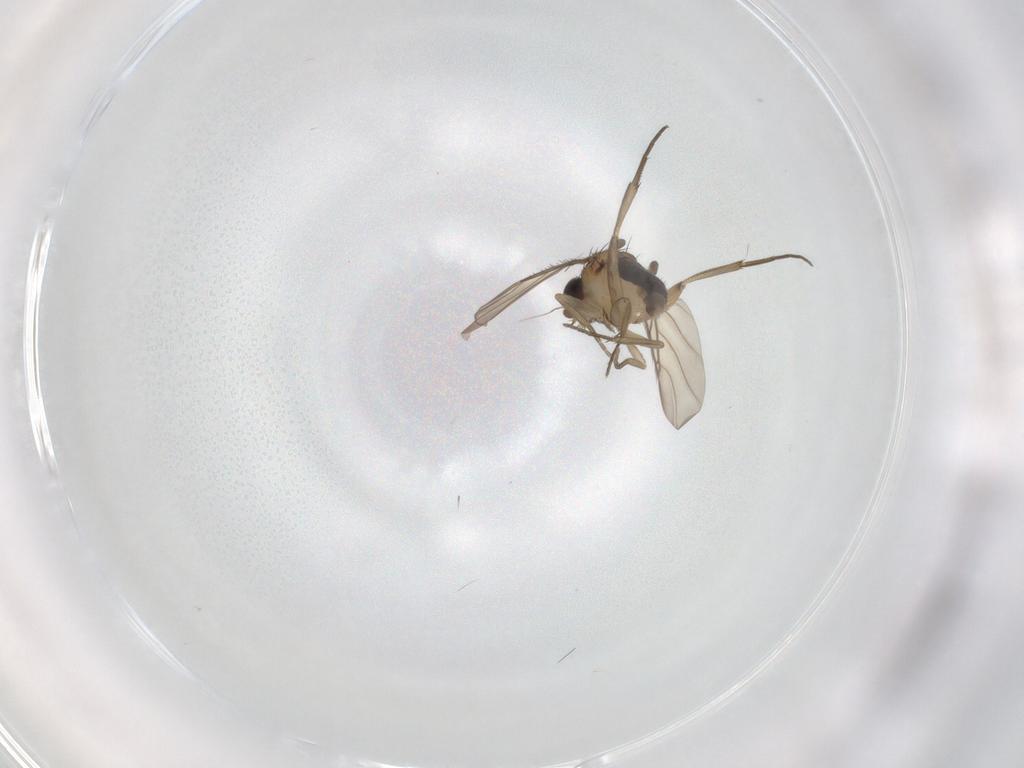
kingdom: Animalia
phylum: Arthropoda
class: Insecta
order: Diptera
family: Phoridae
